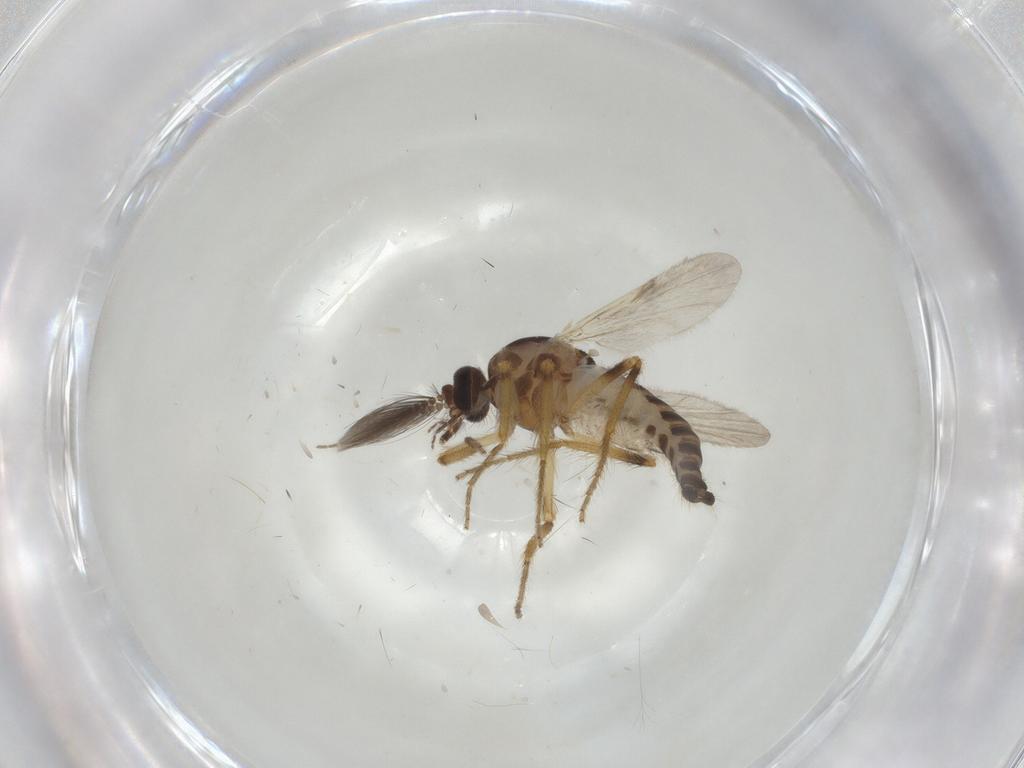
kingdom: Animalia
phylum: Arthropoda
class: Insecta
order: Diptera
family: Ceratopogonidae
